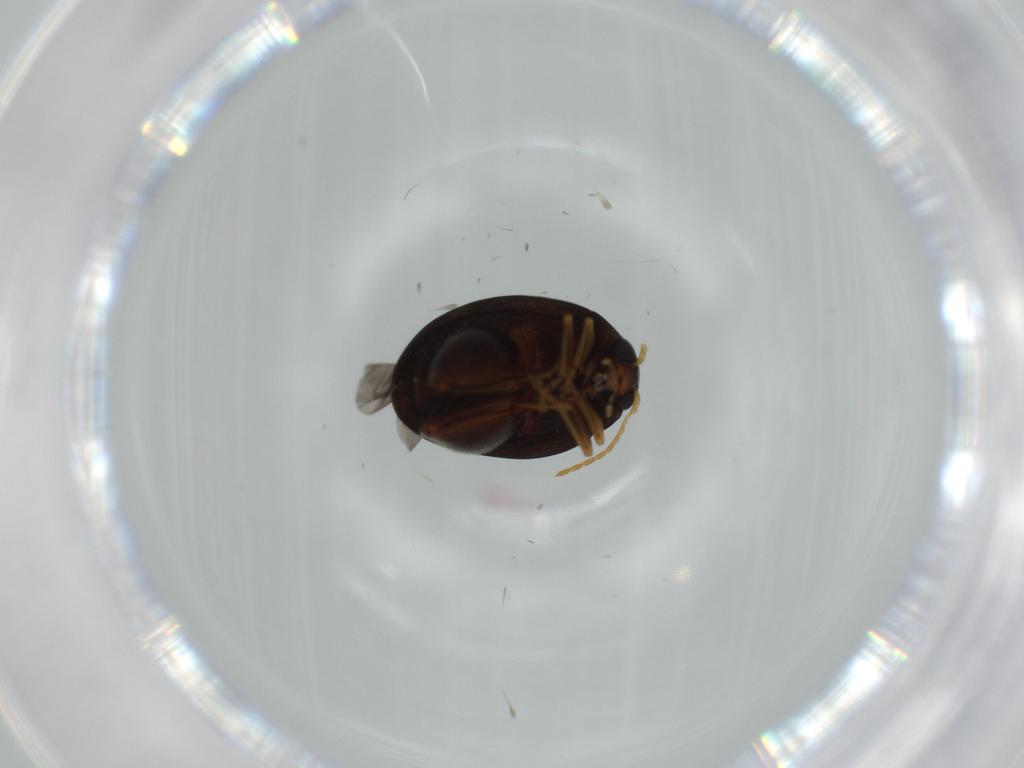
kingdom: Animalia
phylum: Arthropoda
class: Insecta
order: Coleoptera
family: Chrysomelidae
